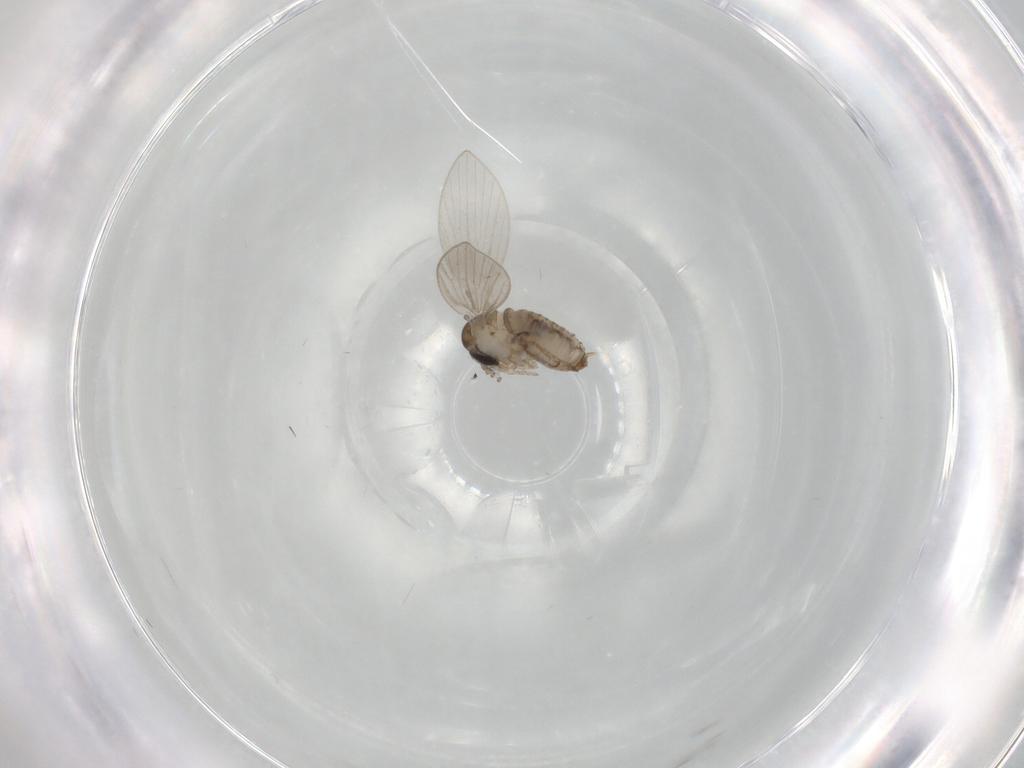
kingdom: Animalia
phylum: Arthropoda
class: Insecta
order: Diptera
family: Psychodidae
